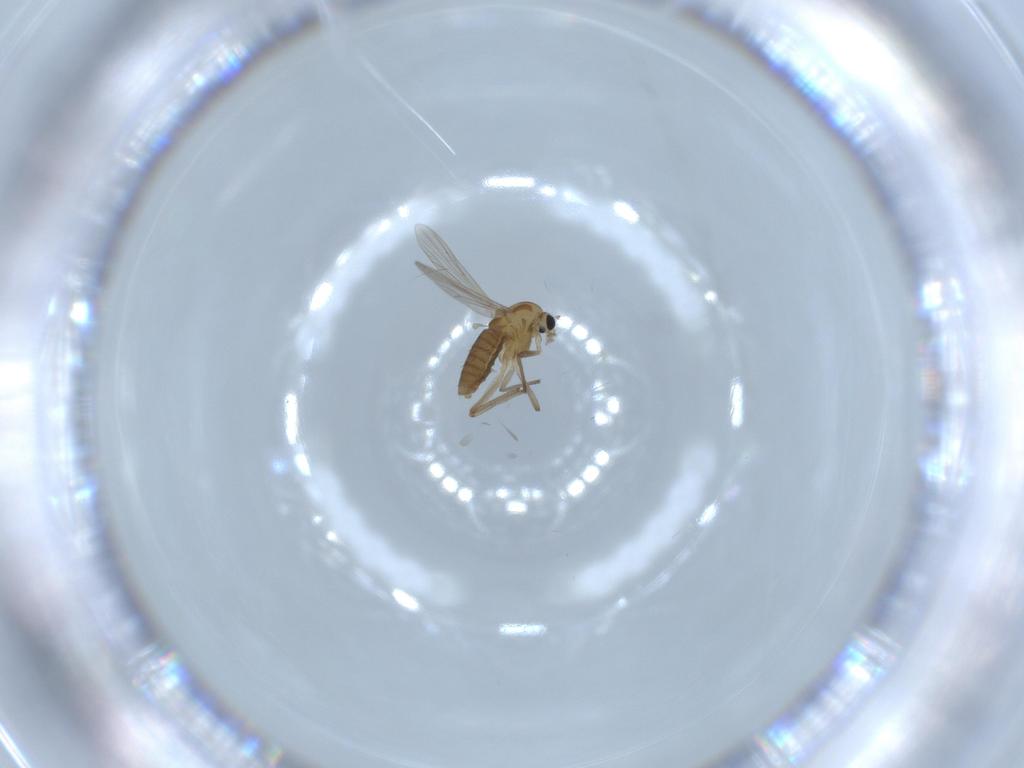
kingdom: Animalia
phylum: Arthropoda
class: Insecta
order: Diptera
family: Chironomidae
